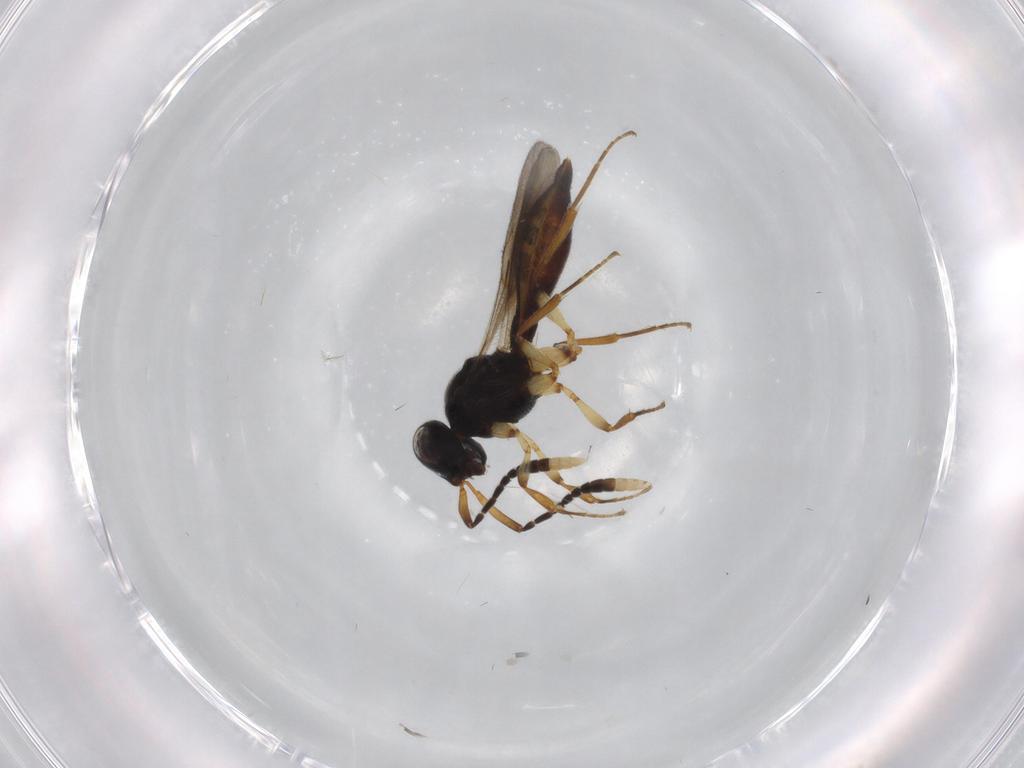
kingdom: Animalia
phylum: Arthropoda
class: Insecta
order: Hymenoptera
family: Scelionidae
